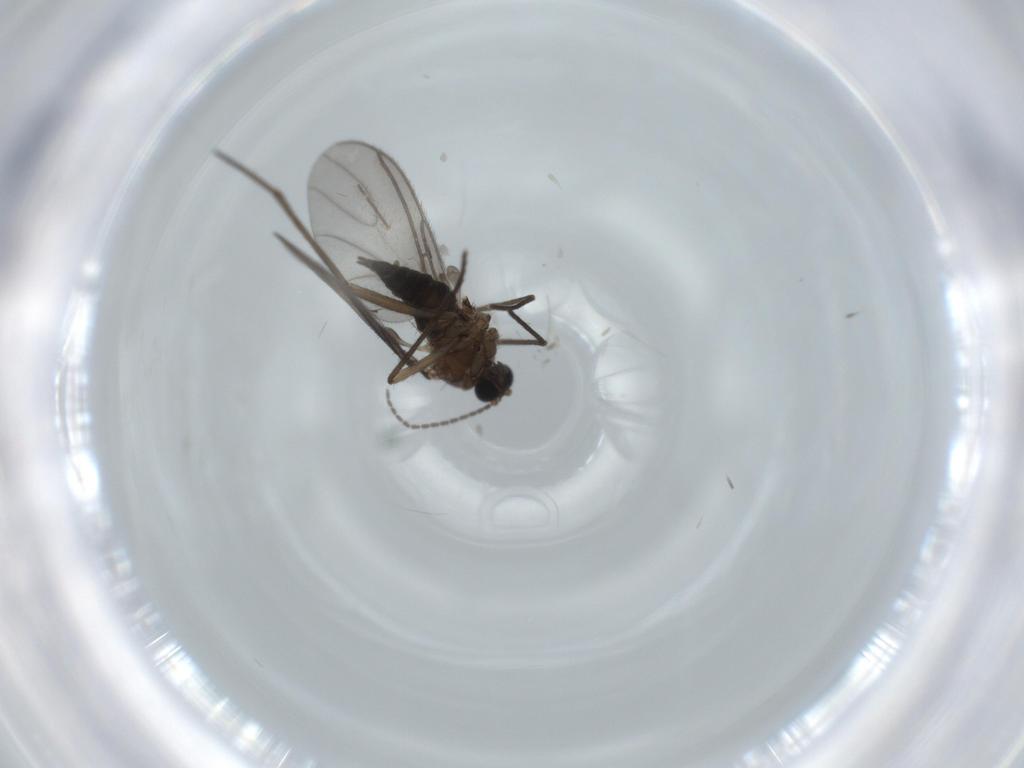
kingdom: Animalia
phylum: Arthropoda
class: Insecta
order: Diptera
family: Sciaridae
